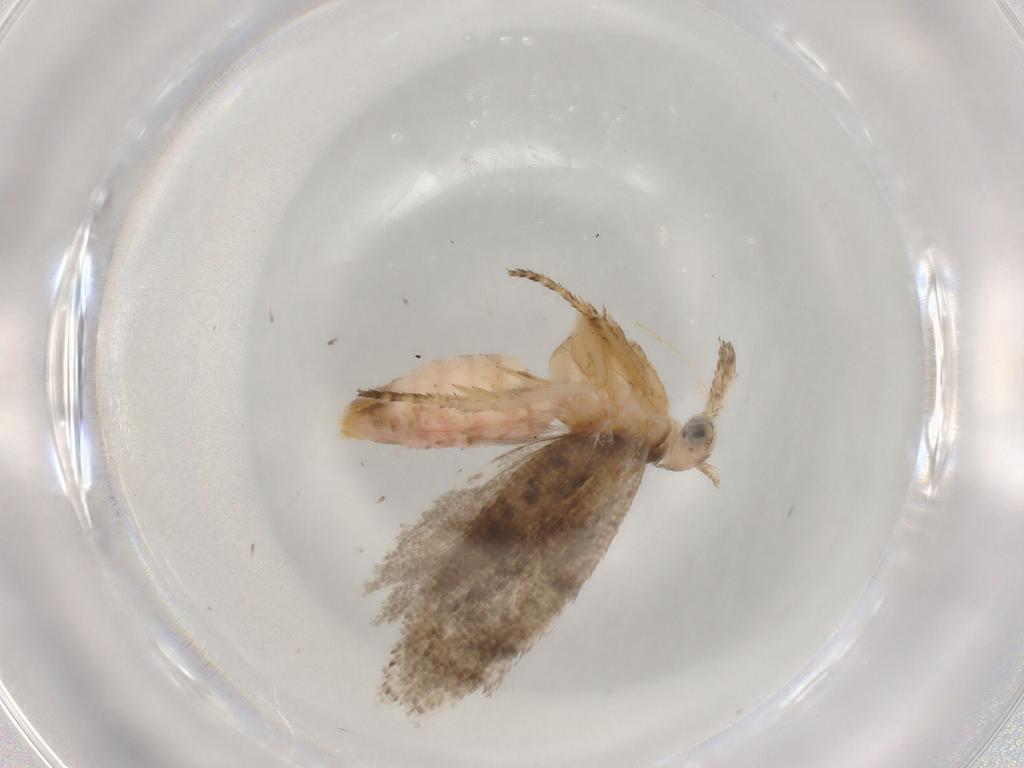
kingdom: Animalia
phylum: Arthropoda
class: Insecta
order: Lepidoptera
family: Plutellidae
